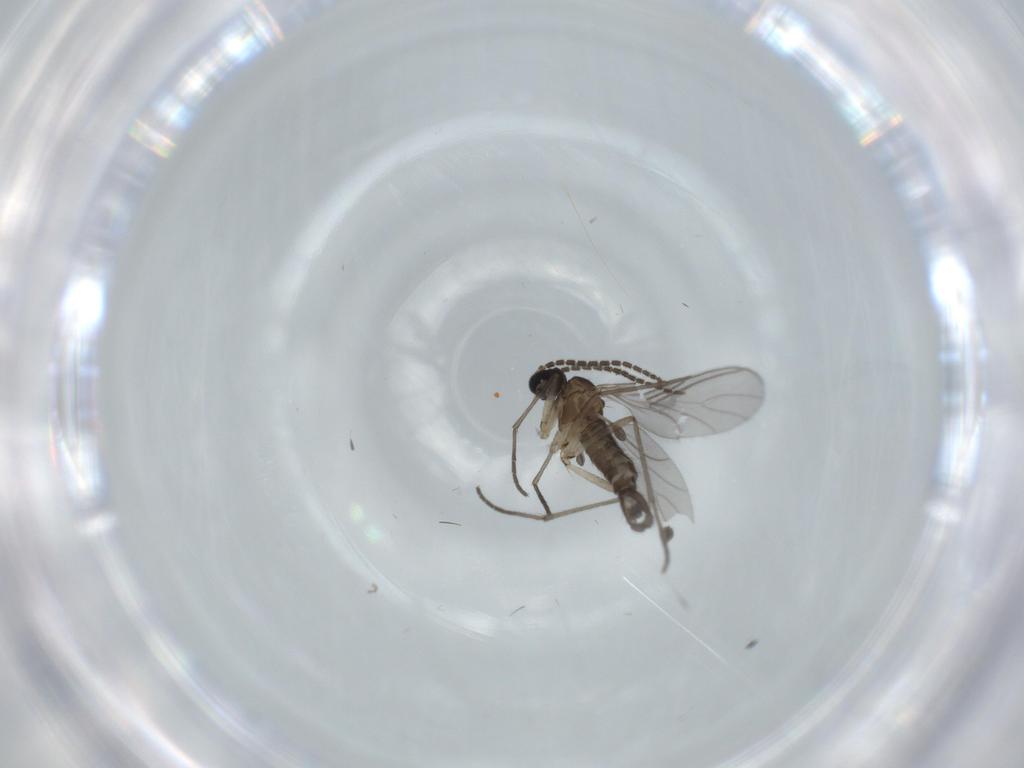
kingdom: Animalia
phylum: Arthropoda
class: Insecta
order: Diptera
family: Sciaridae
